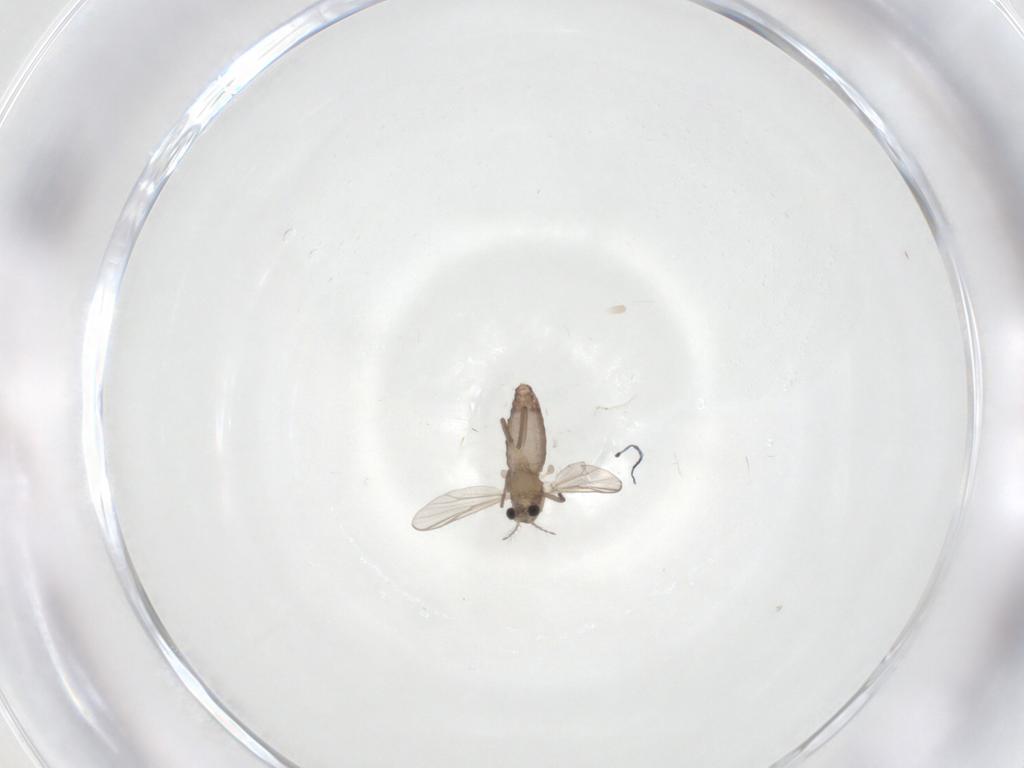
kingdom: Animalia
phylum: Arthropoda
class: Insecta
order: Diptera
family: Chironomidae
